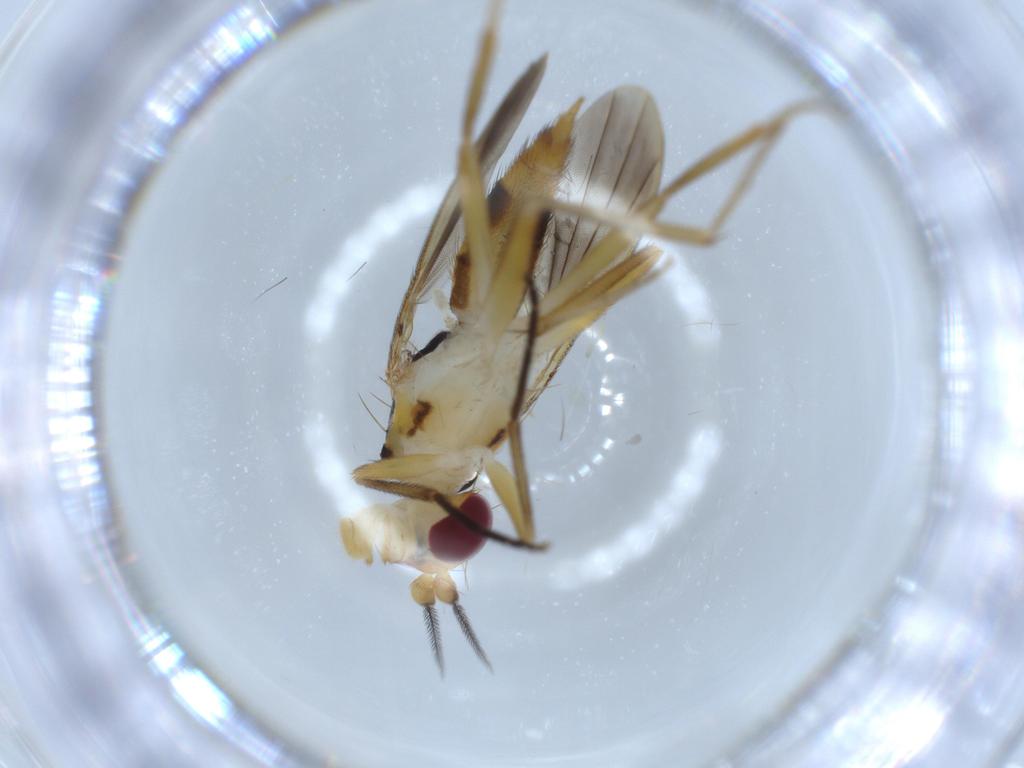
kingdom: Animalia
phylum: Arthropoda
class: Insecta
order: Diptera
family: Clusiidae
